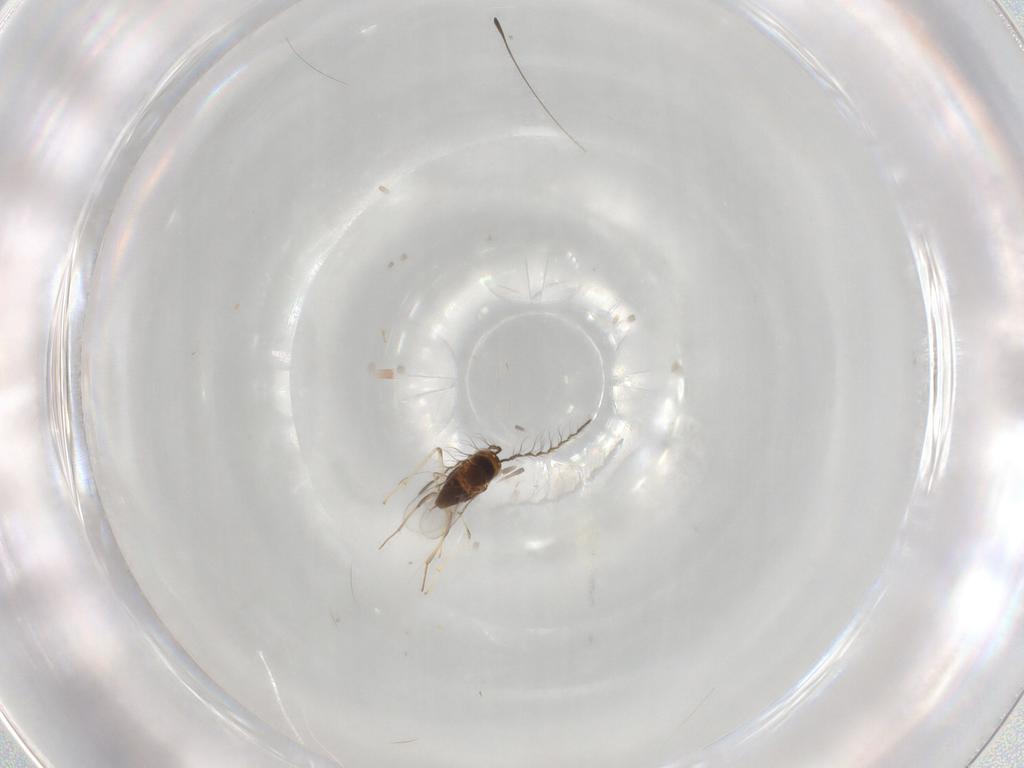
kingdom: Animalia
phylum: Arthropoda
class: Insecta
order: Hymenoptera
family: Encyrtidae
